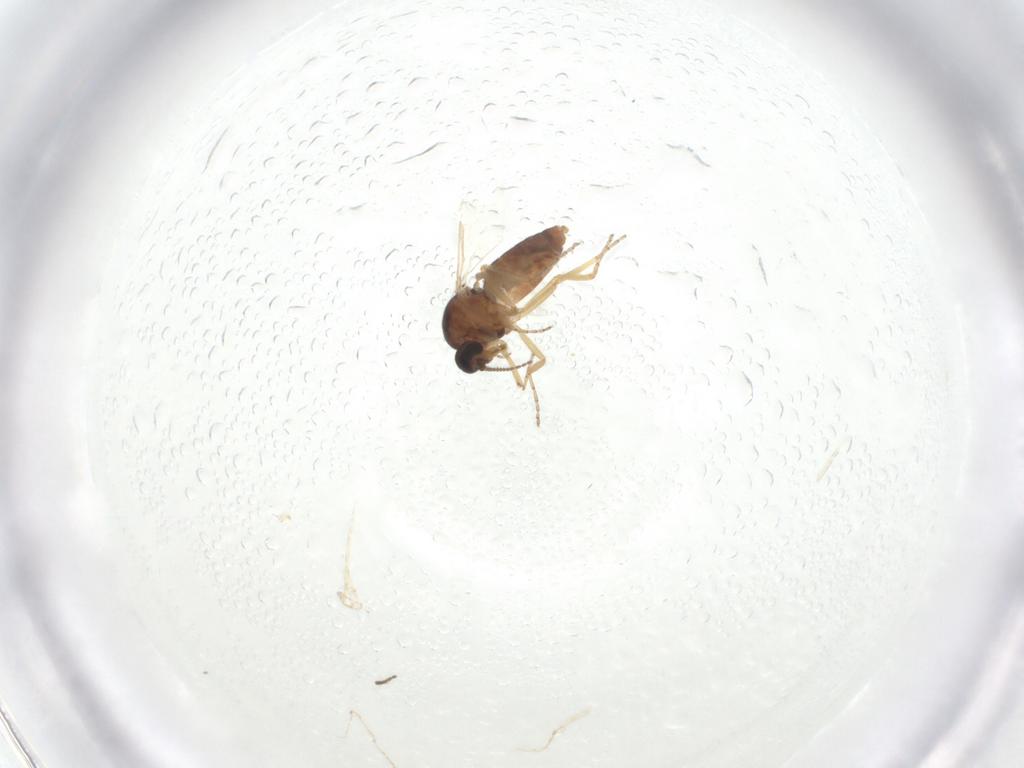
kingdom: Animalia
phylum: Arthropoda
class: Insecta
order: Diptera
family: Ceratopogonidae
